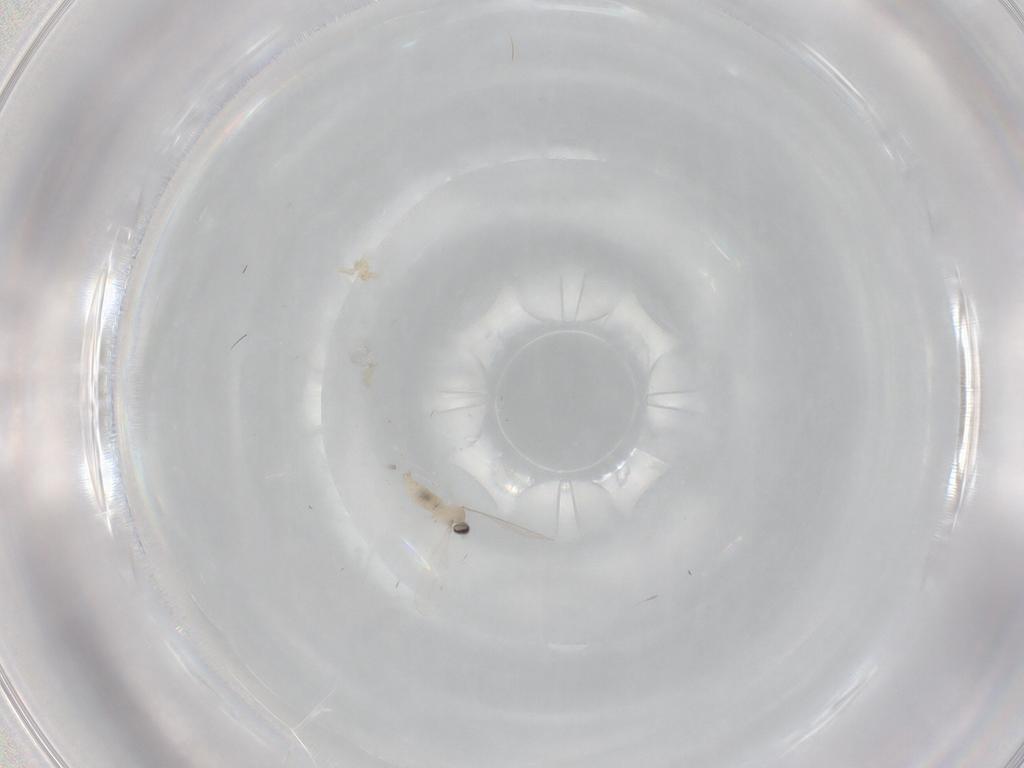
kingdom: Animalia
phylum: Arthropoda
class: Insecta
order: Diptera
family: Cecidomyiidae
